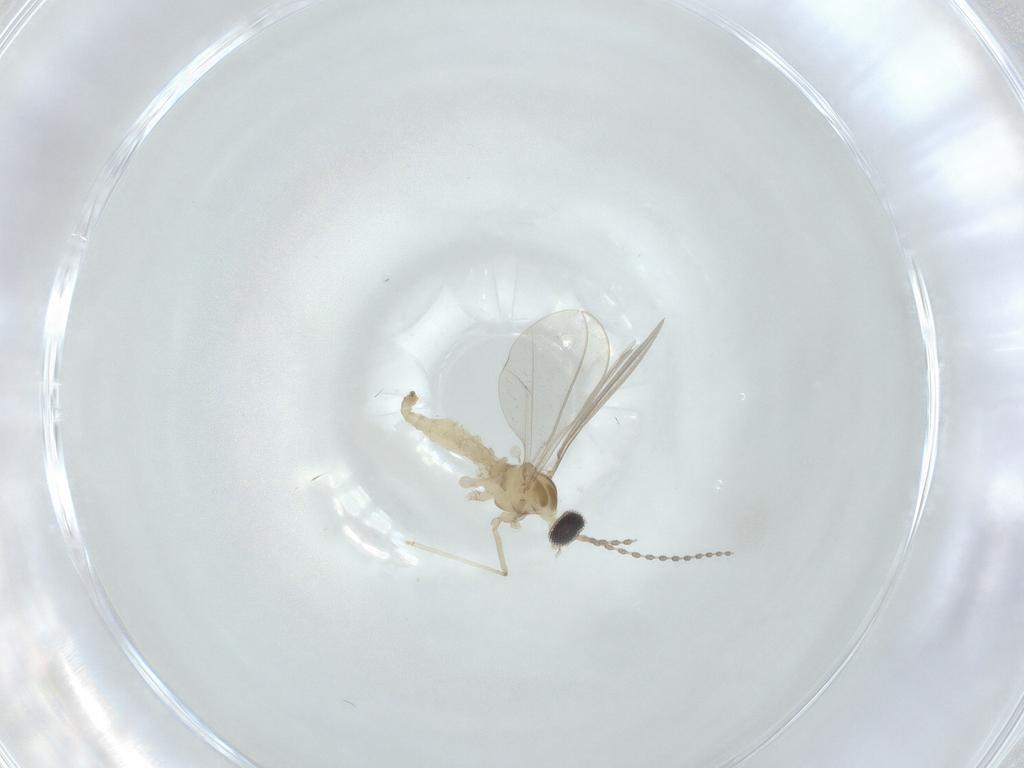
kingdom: Animalia
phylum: Arthropoda
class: Insecta
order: Diptera
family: Cecidomyiidae
